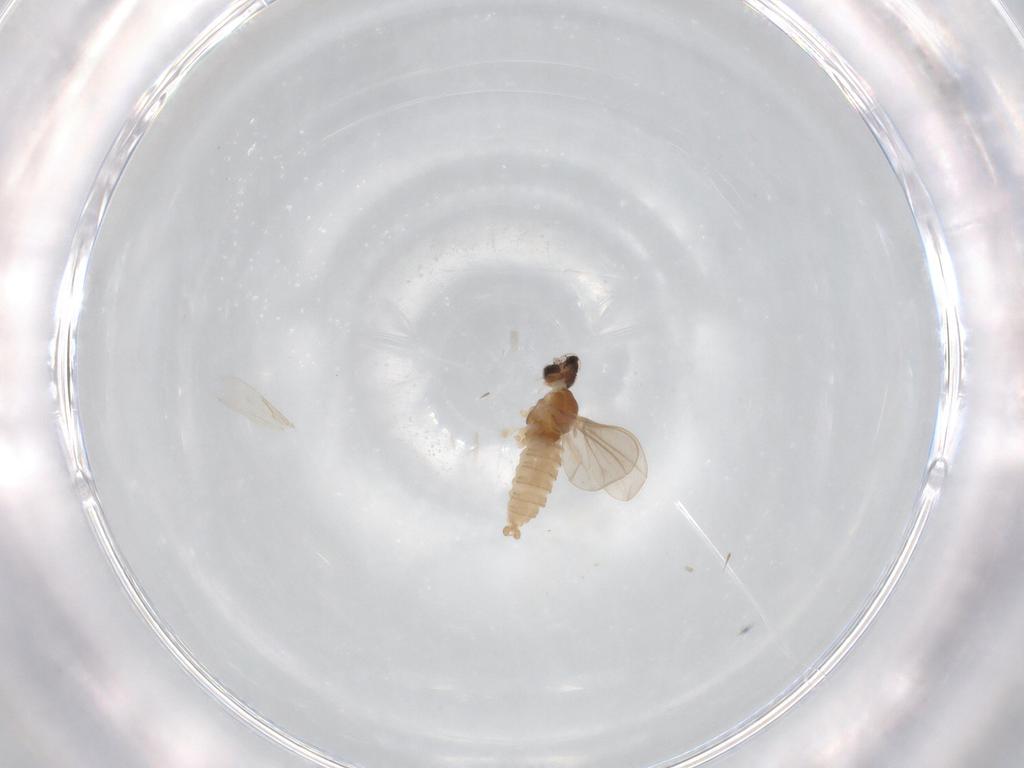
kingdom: Animalia
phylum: Arthropoda
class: Insecta
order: Diptera
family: Cecidomyiidae
